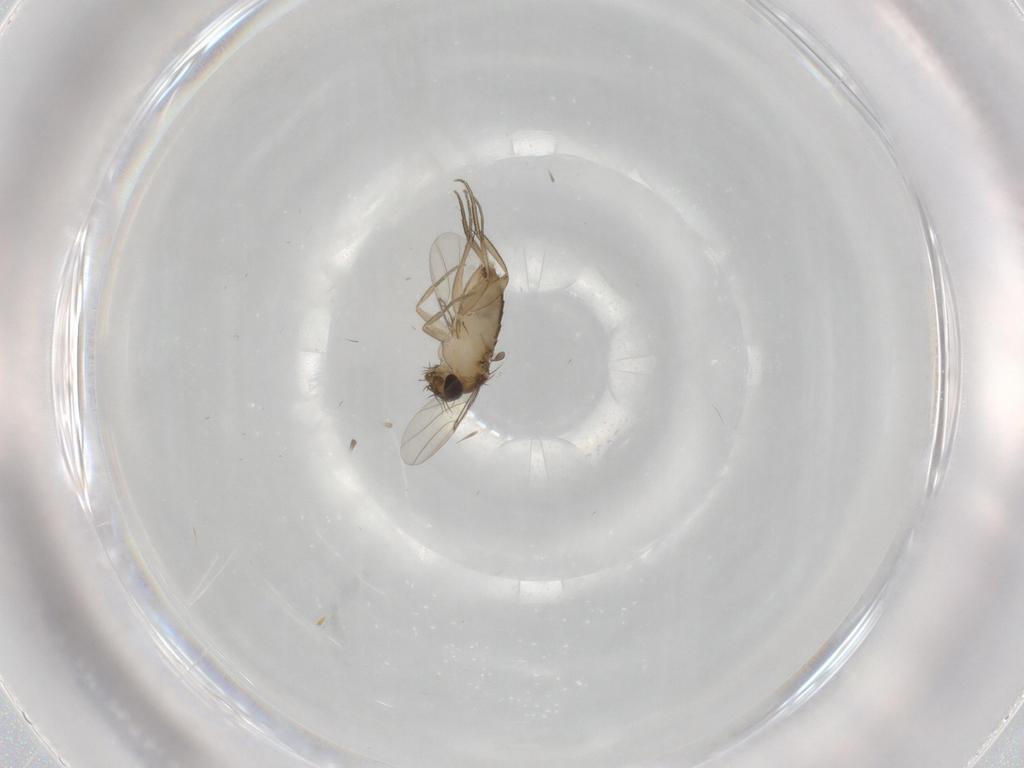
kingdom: Animalia
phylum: Arthropoda
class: Insecta
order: Diptera
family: Phoridae
